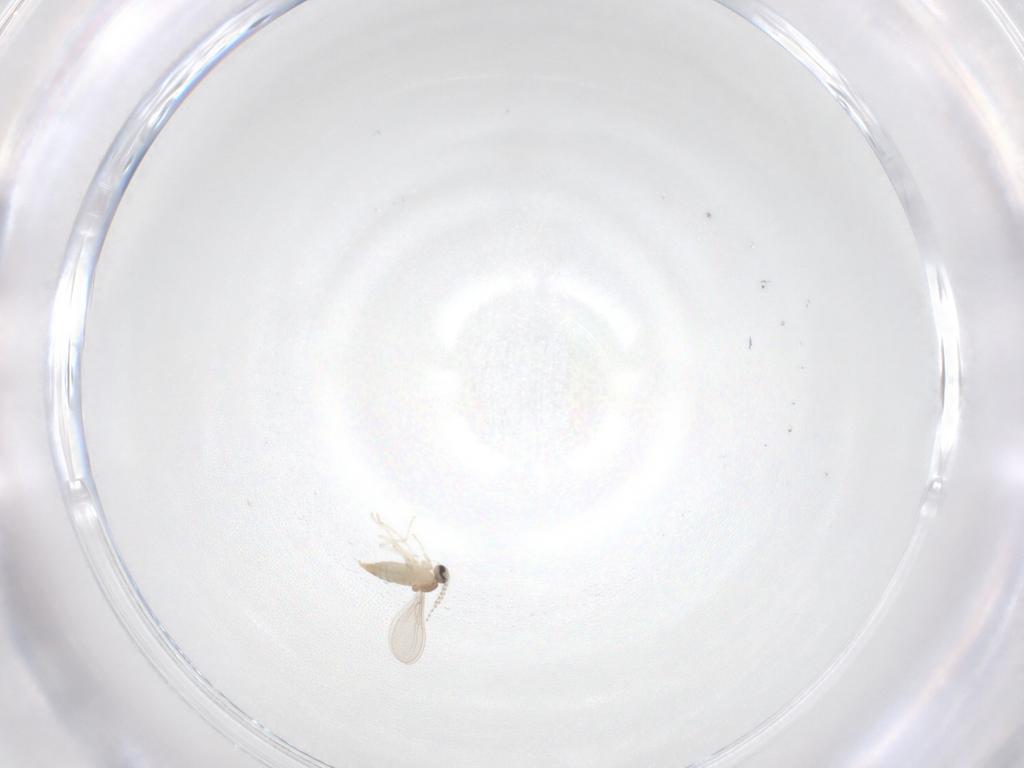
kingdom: Animalia
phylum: Arthropoda
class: Insecta
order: Diptera
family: Cecidomyiidae
